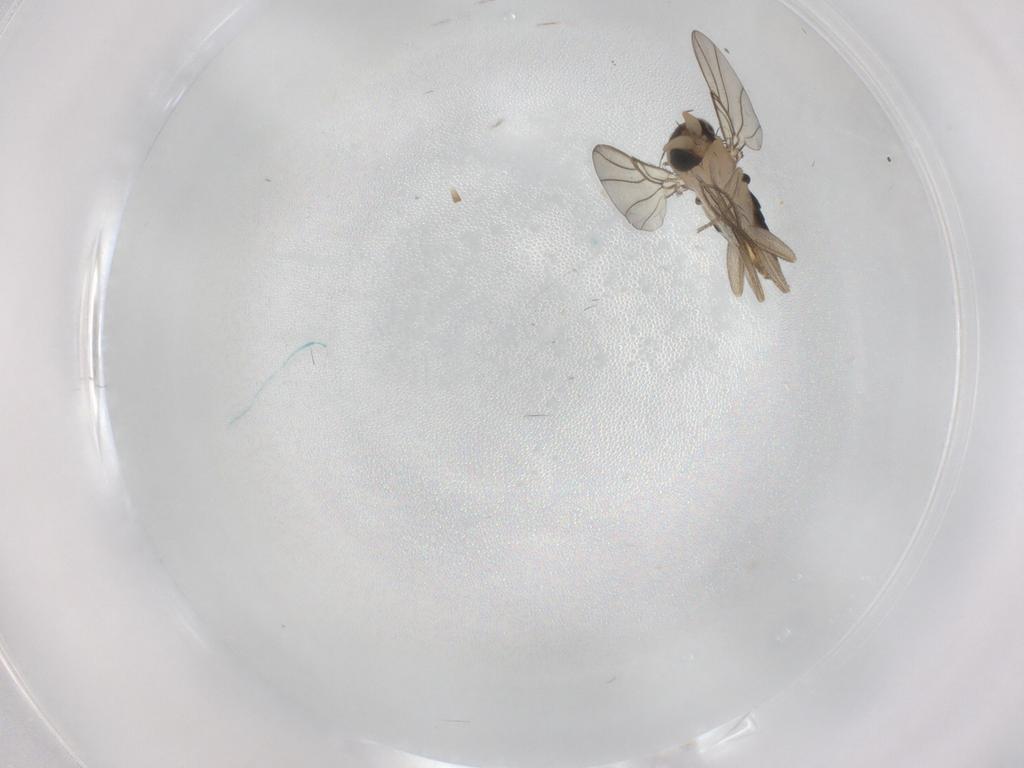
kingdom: Animalia
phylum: Arthropoda
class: Insecta
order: Diptera
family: Phoridae
